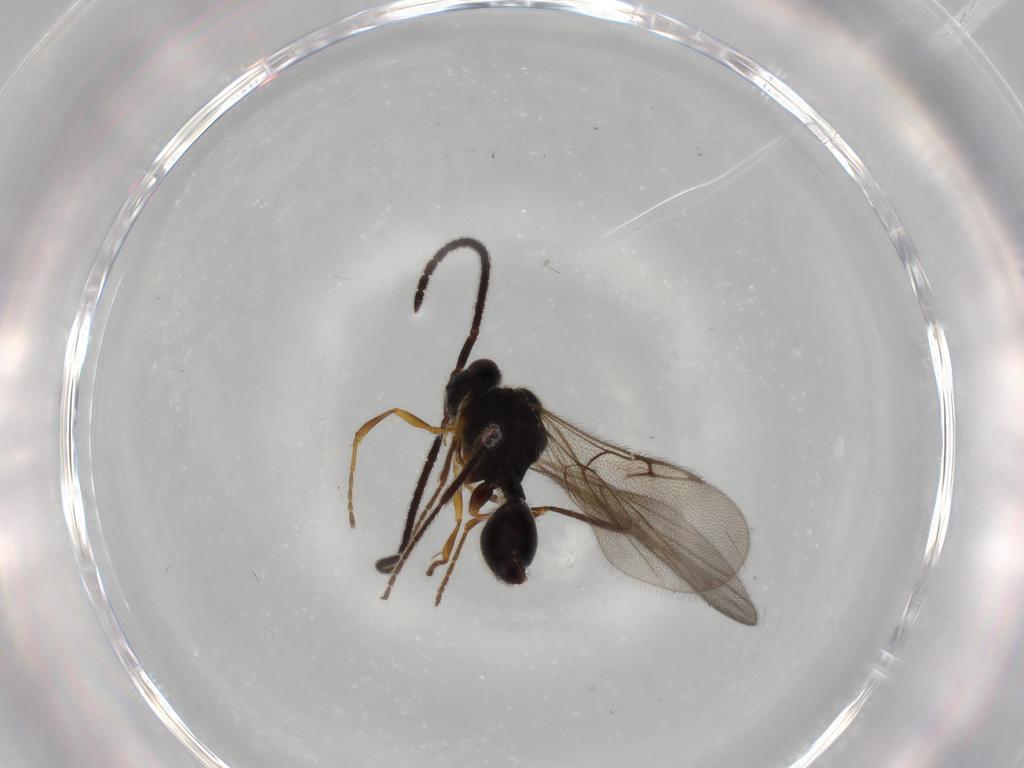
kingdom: Animalia
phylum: Arthropoda
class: Insecta
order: Hymenoptera
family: Diapriidae
